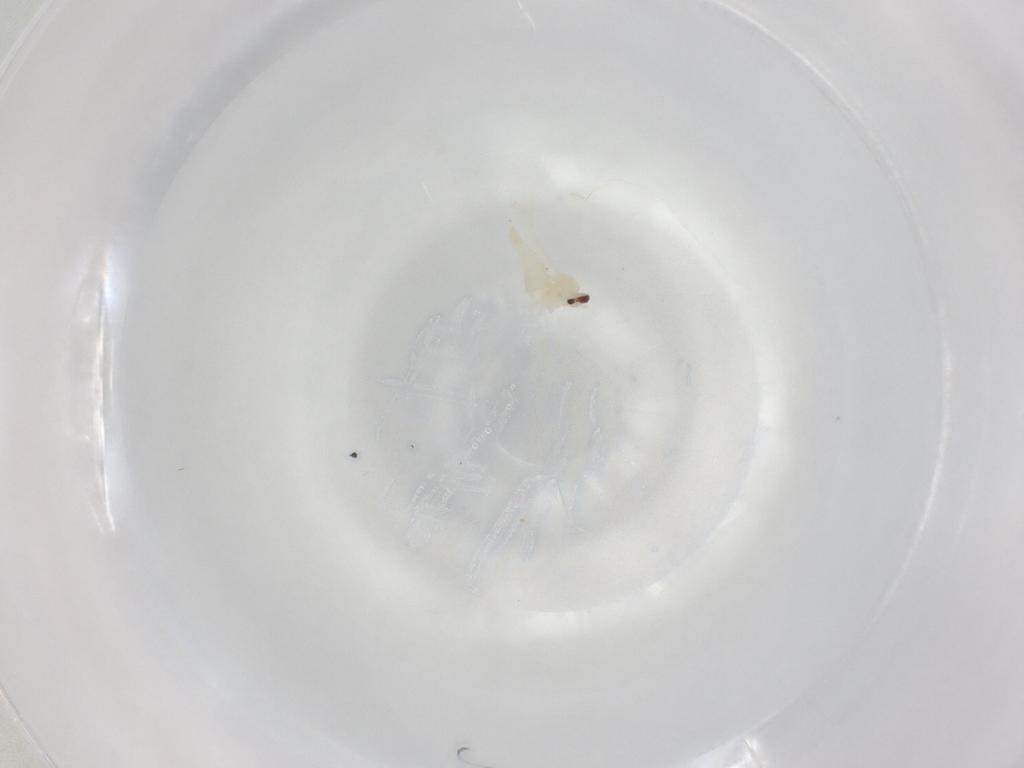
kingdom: Animalia
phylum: Arthropoda
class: Insecta
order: Diptera
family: Cecidomyiidae
